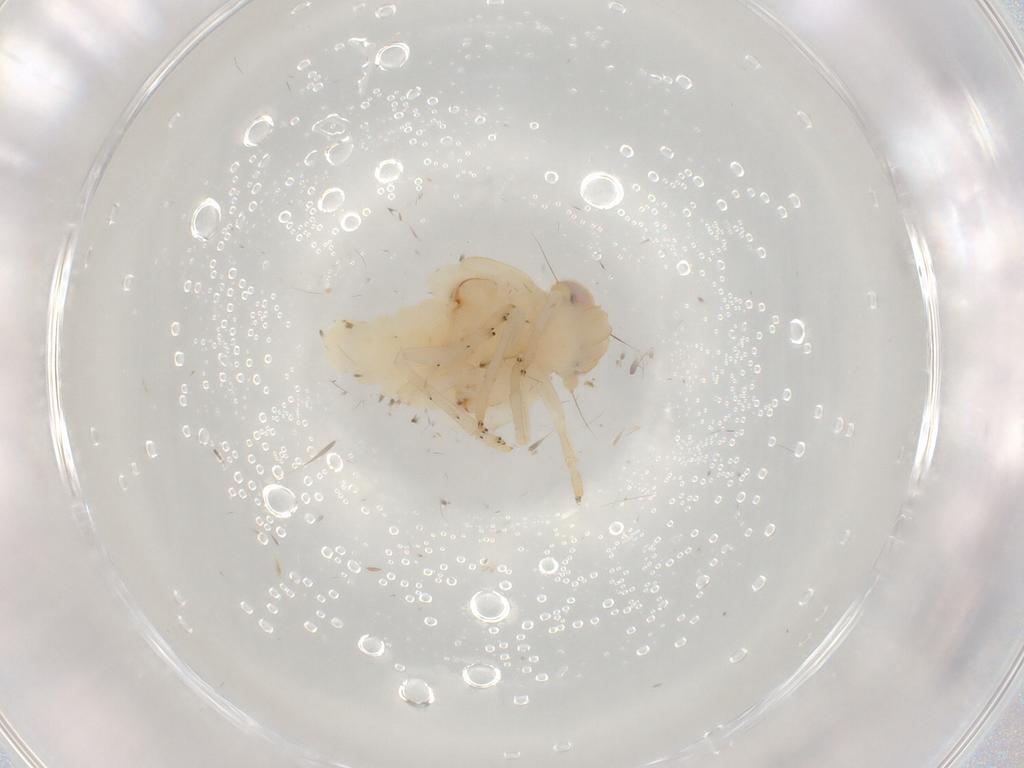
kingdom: Animalia
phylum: Arthropoda
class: Insecta
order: Hemiptera
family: Nogodinidae
